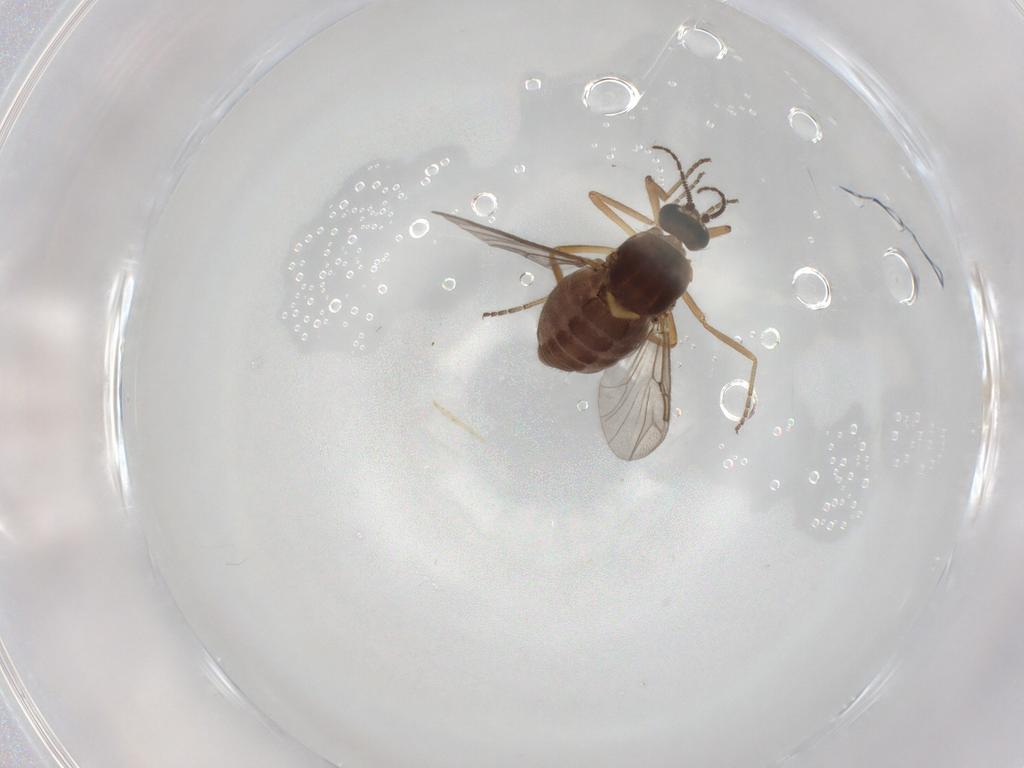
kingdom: Animalia
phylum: Arthropoda
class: Insecta
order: Diptera
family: Ceratopogonidae
